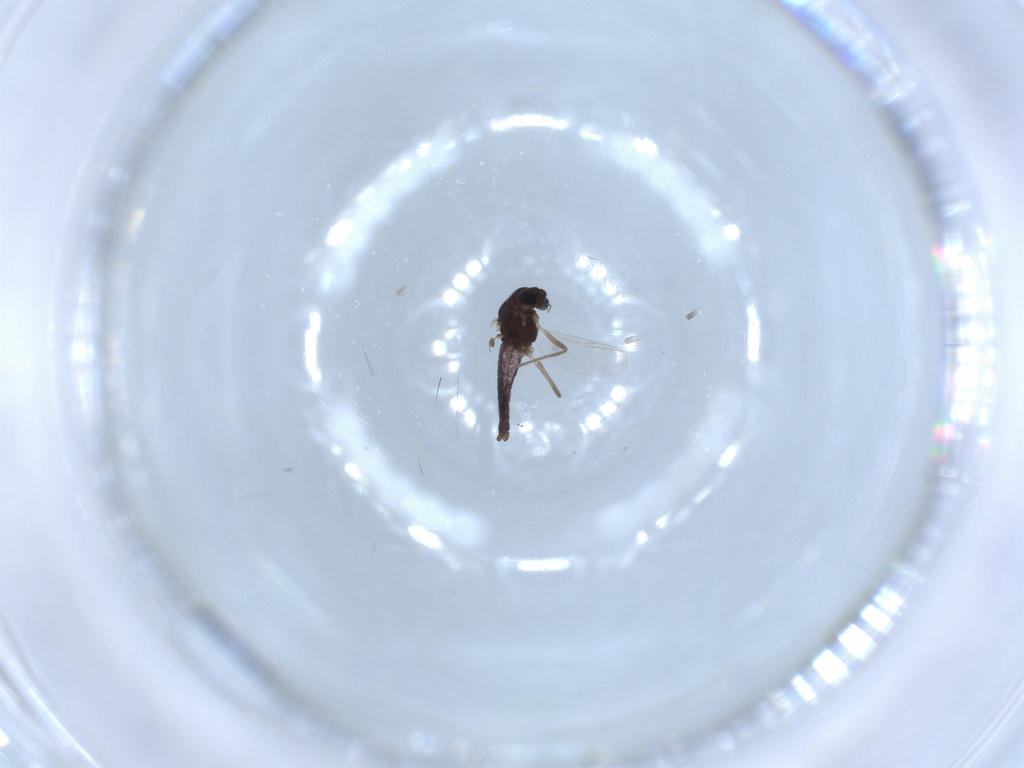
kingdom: Animalia
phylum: Arthropoda
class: Insecta
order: Diptera
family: Chironomidae
